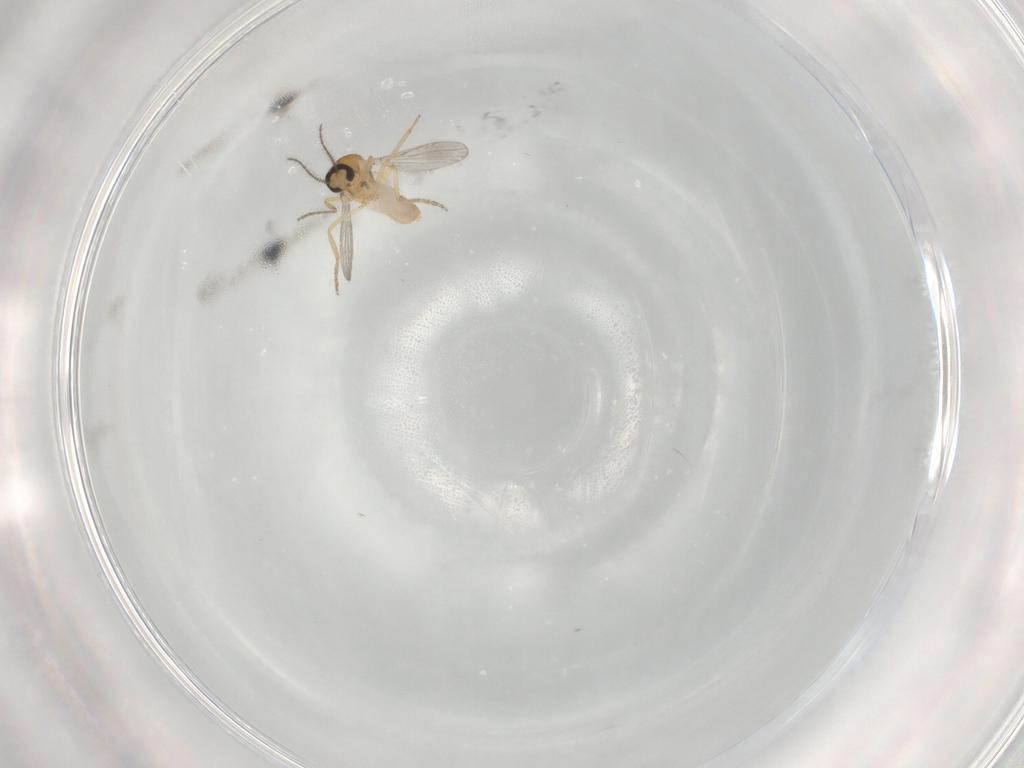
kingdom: Animalia
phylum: Arthropoda
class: Insecta
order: Diptera
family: Ceratopogonidae
